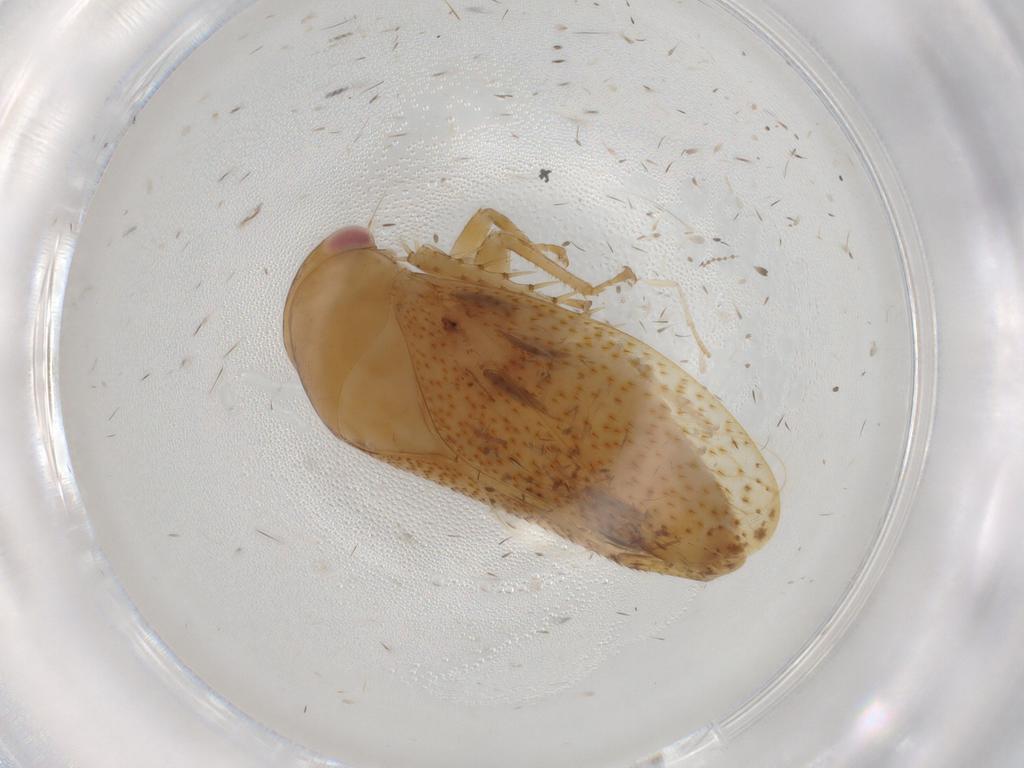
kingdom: Animalia
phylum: Arthropoda
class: Insecta
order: Hemiptera
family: Cicadellidae
